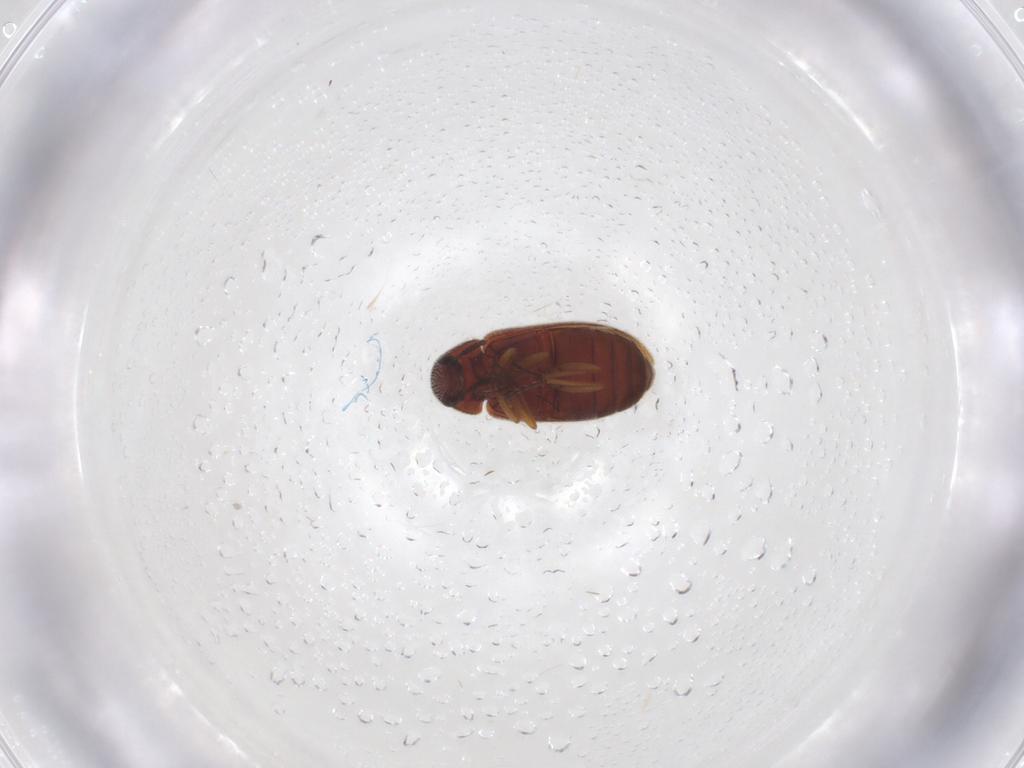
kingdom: Animalia
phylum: Arthropoda
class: Insecta
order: Coleoptera
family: Rhadalidae
